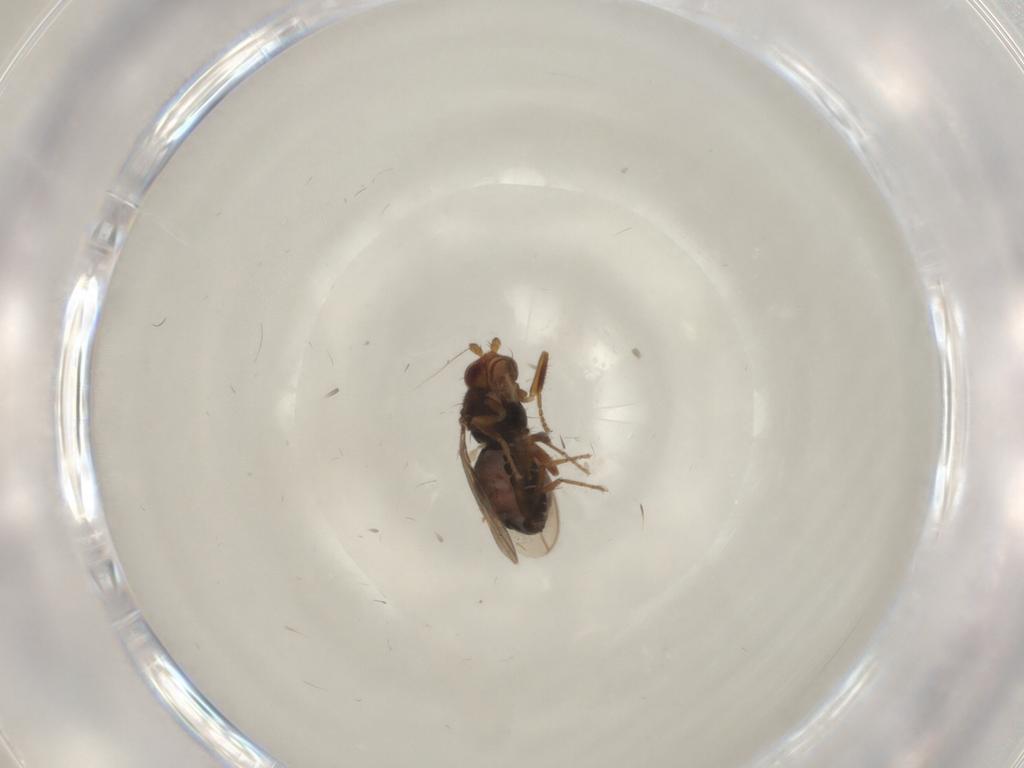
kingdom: Animalia
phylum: Arthropoda
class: Insecta
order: Diptera
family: Sphaeroceridae
